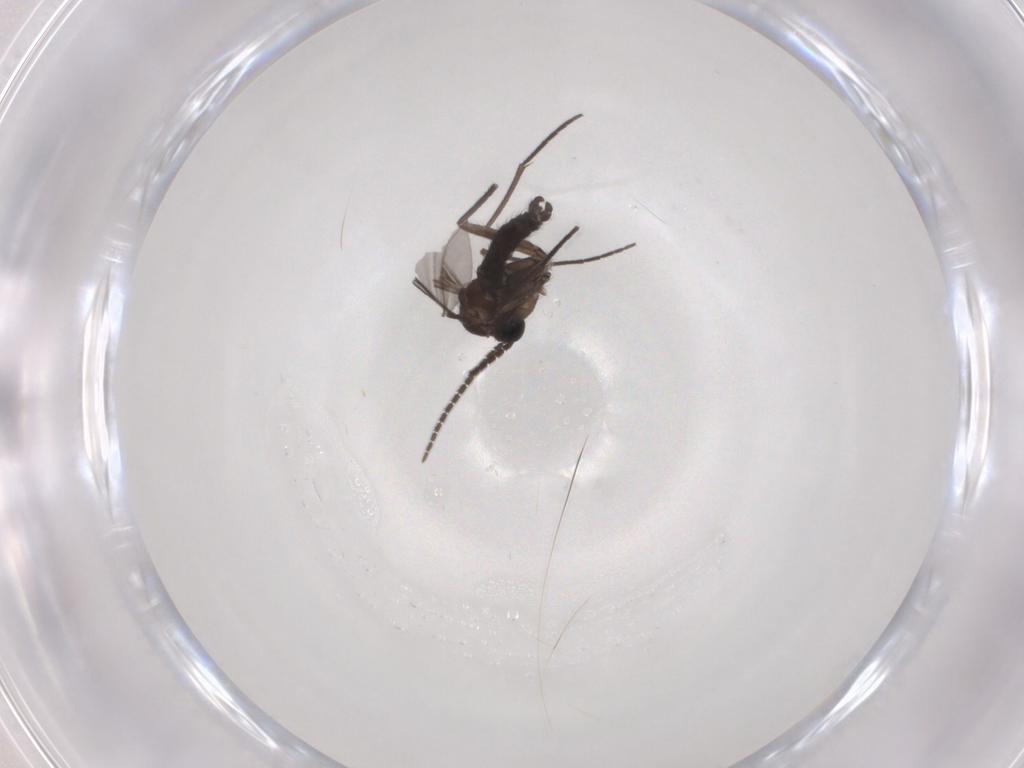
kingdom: Animalia
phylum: Arthropoda
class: Insecta
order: Diptera
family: Sciaridae
